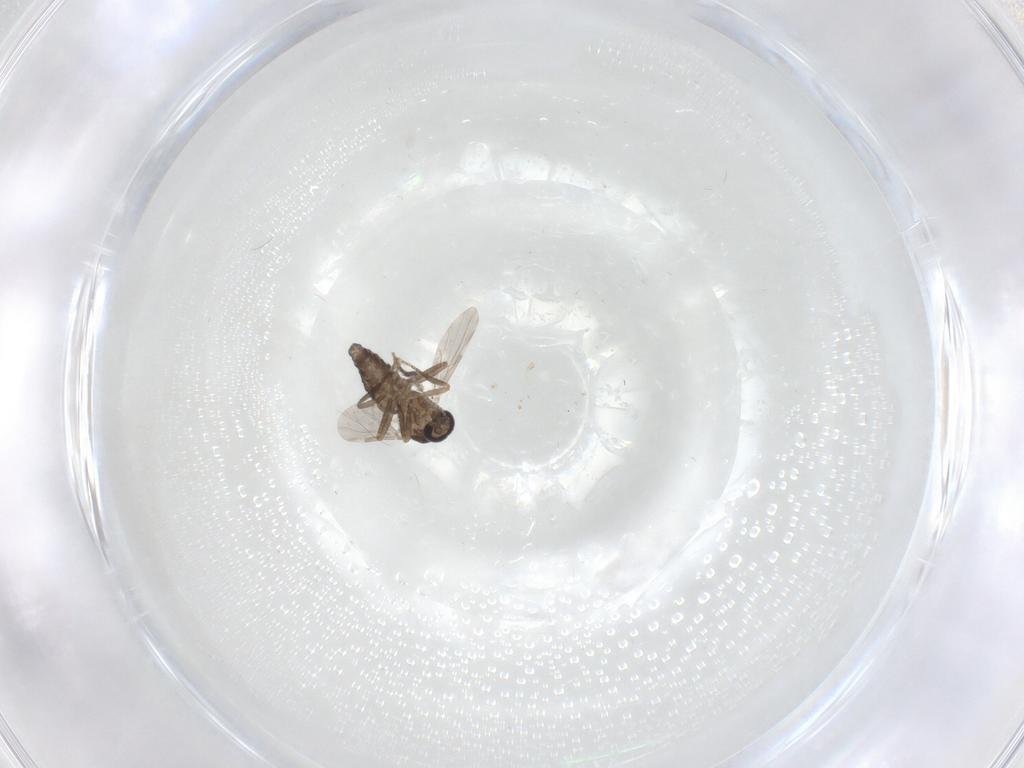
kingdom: Animalia
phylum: Arthropoda
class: Insecta
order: Diptera
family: Ceratopogonidae
